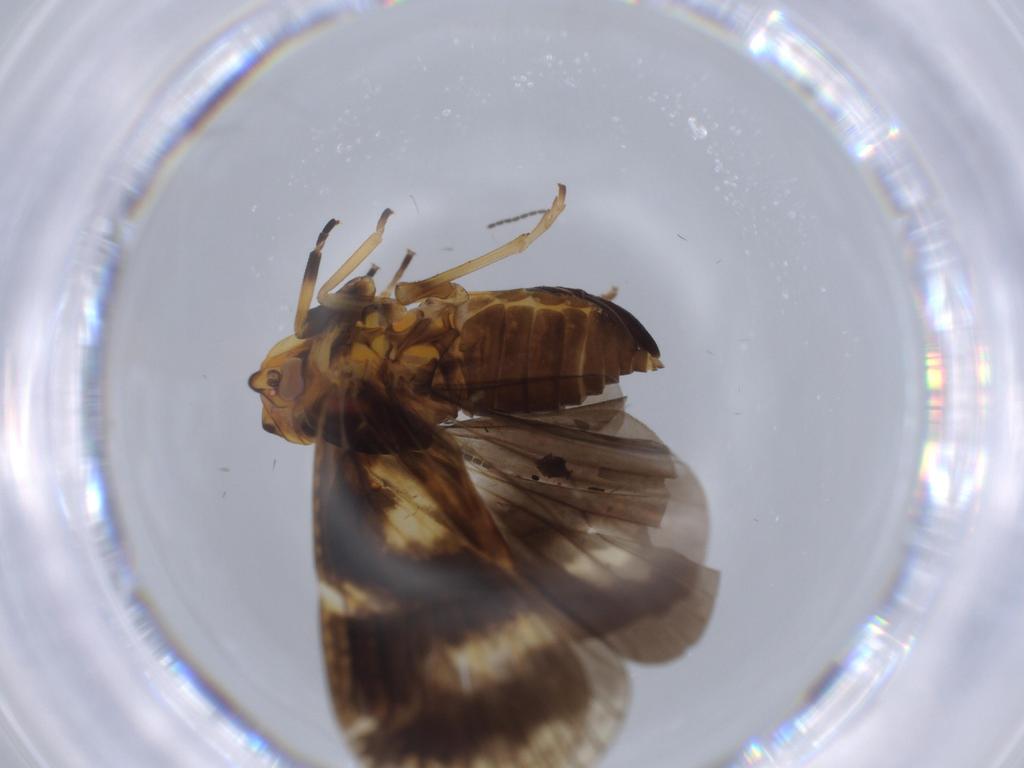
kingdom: Animalia
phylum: Arthropoda
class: Insecta
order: Hemiptera
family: Cixiidae
